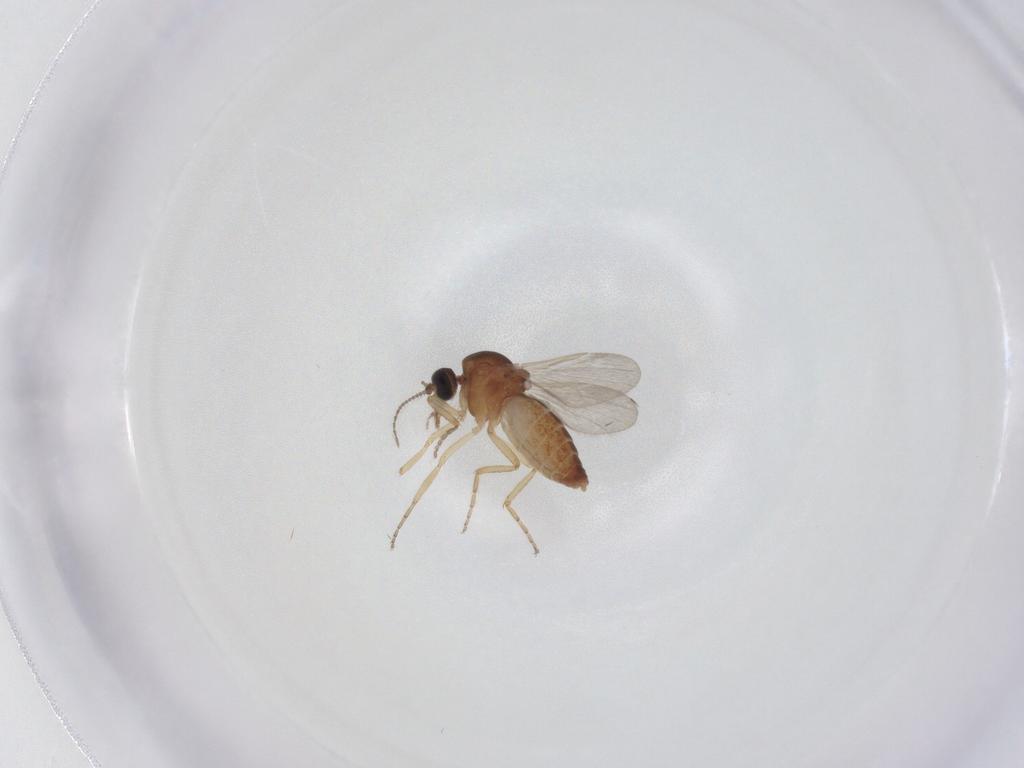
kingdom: Animalia
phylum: Arthropoda
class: Insecta
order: Diptera
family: Ceratopogonidae
